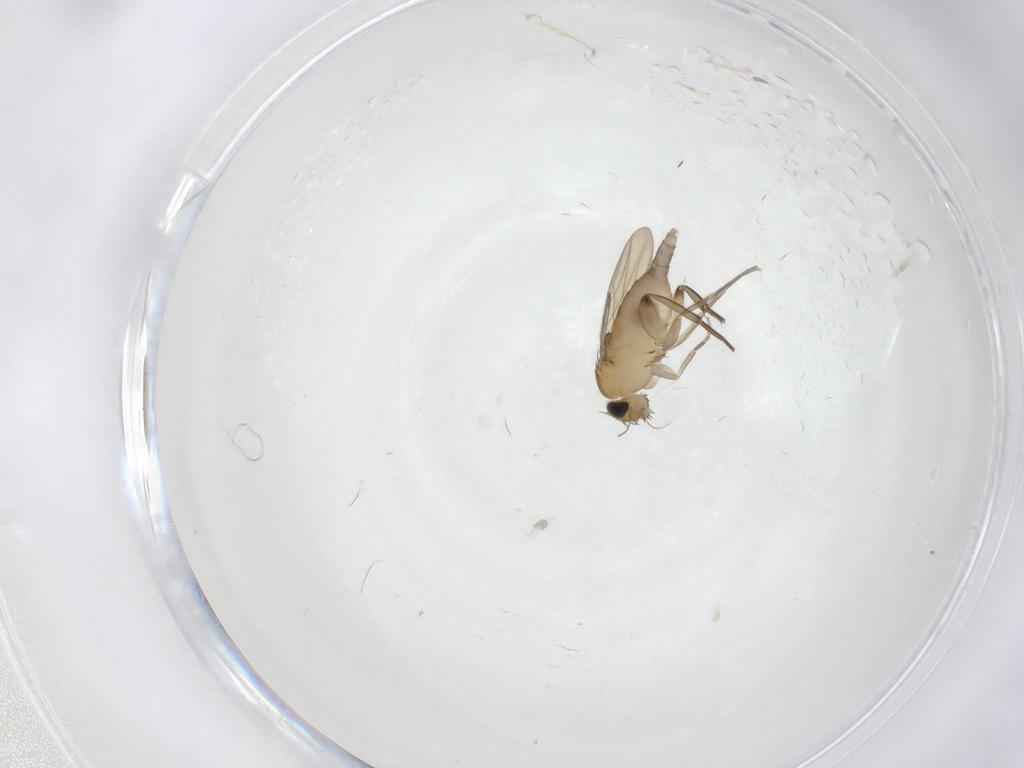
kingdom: Animalia
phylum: Arthropoda
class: Insecta
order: Diptera
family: Phoridae
